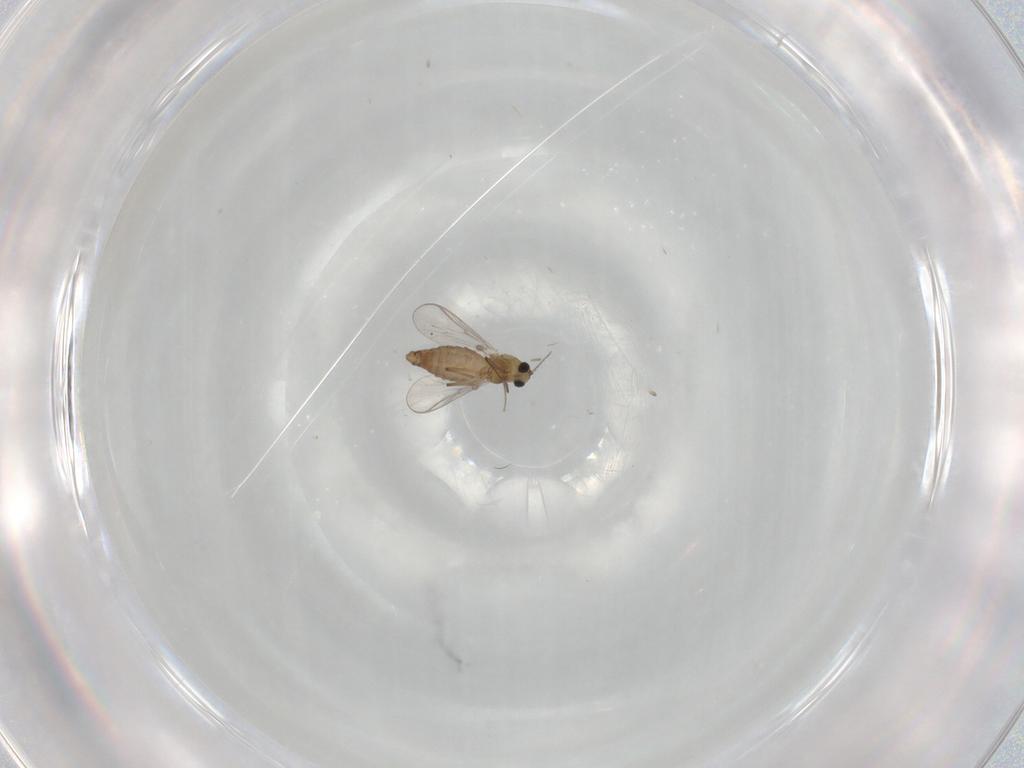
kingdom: Animalia
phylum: Arthropoda
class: Insecta
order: Diptera
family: Chironomidae
